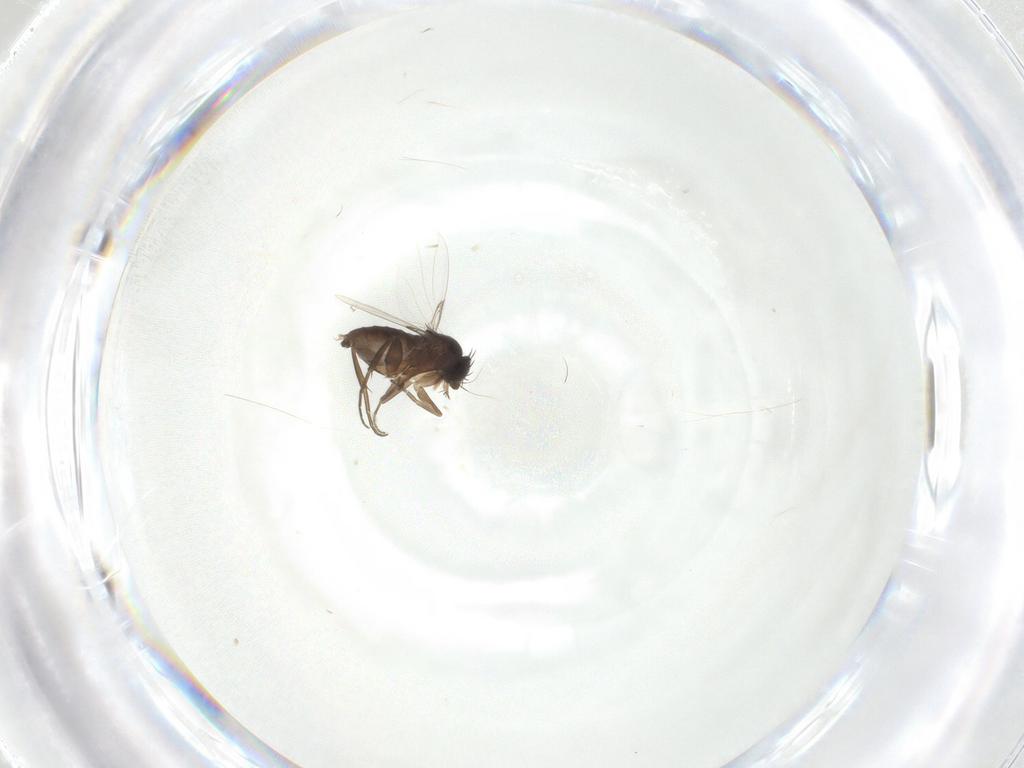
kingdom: Animalia
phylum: Arthropoda
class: Insecta
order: Diptera
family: Phoridae
